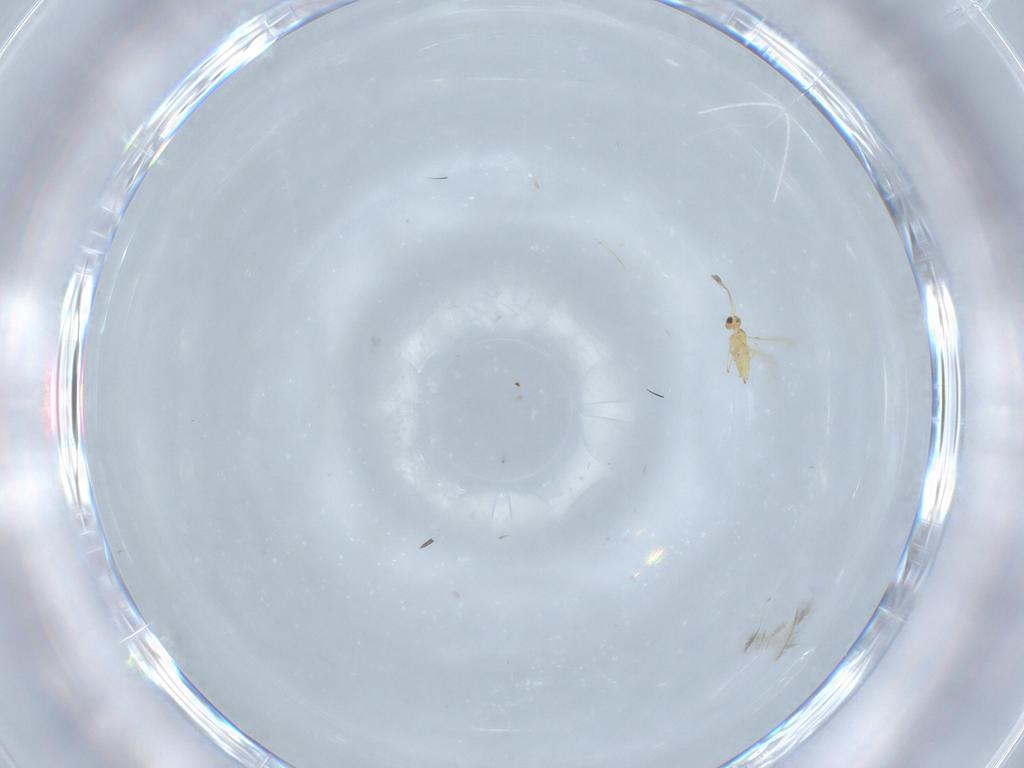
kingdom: Animalia
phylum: Arthropoda
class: Insecta
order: Hymenoptera
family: Mymaridae
